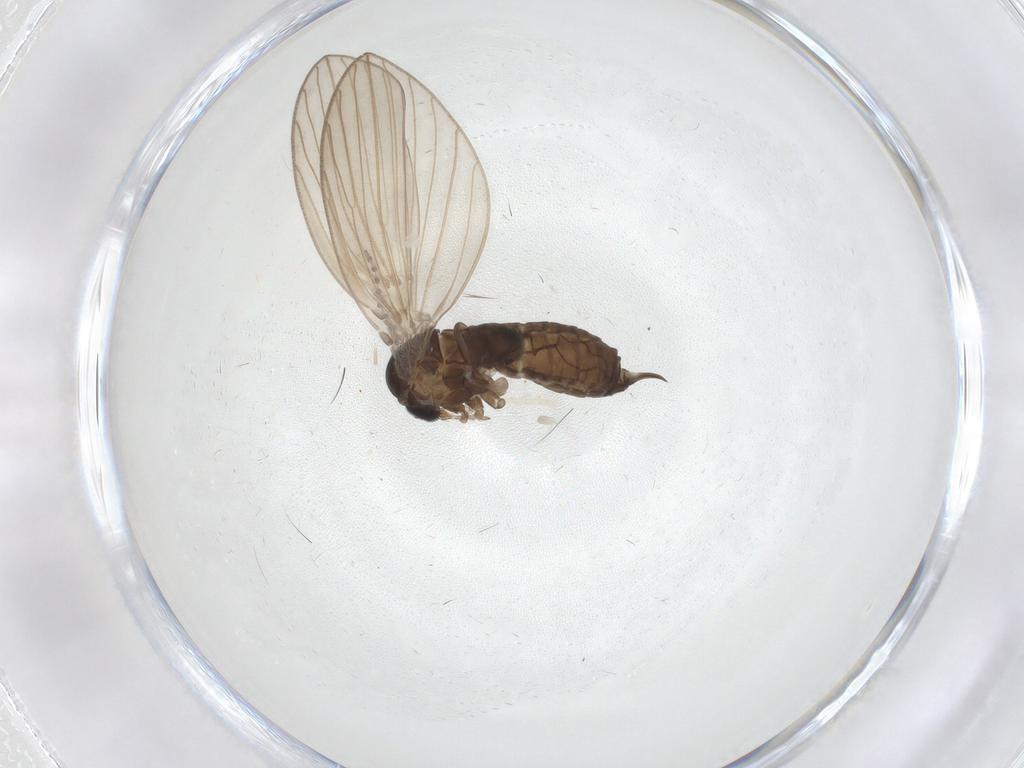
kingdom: Animalia
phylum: Arthropoda
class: Insecta
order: Diptera
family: Psychodidae
